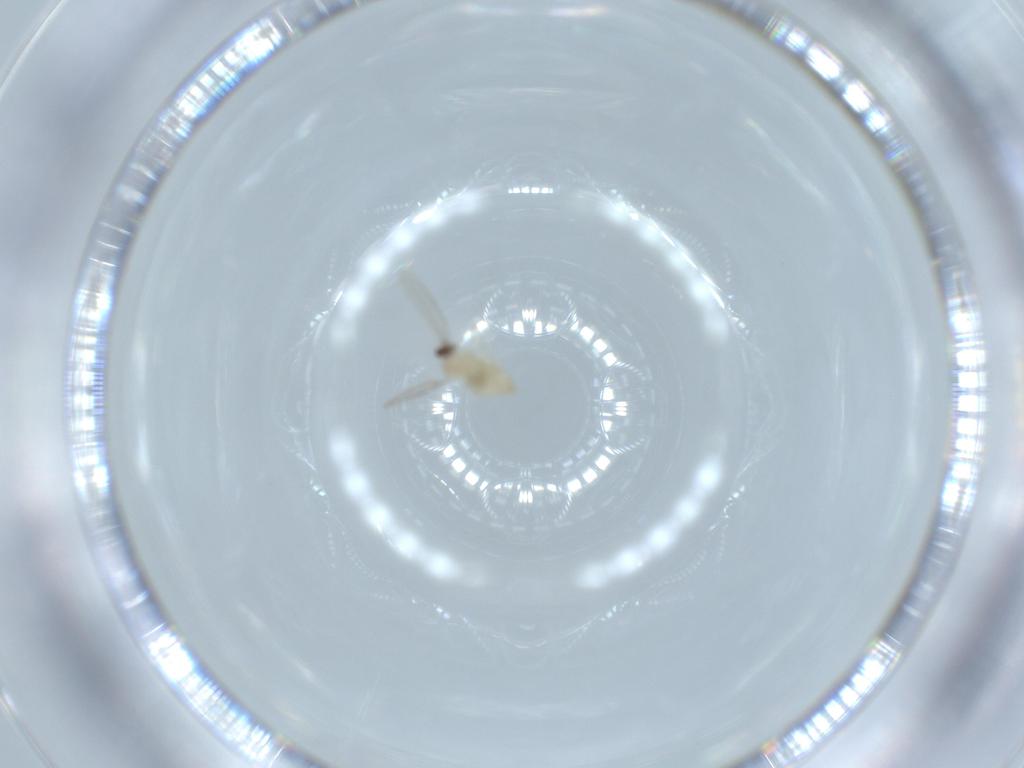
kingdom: Animalia
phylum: Arthropoda
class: Insecta
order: Diptera
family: Cecidomyiidae
